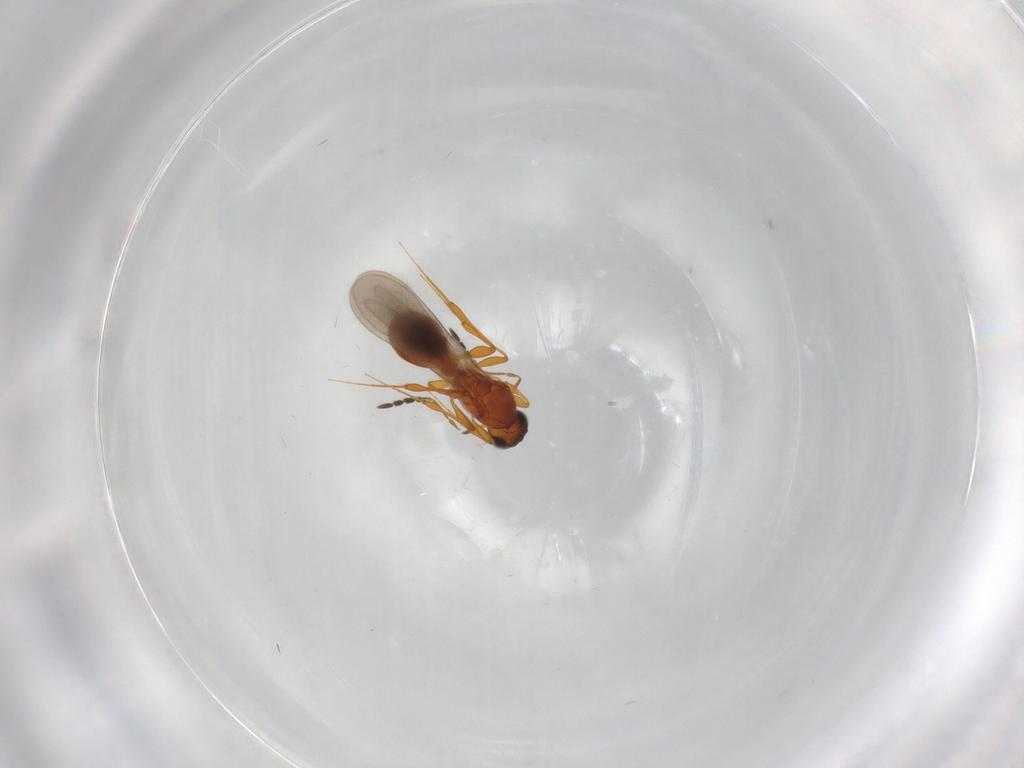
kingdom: Animalia
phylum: Arthropoda
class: Insecta
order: Hymenoptera
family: Platygastridae
